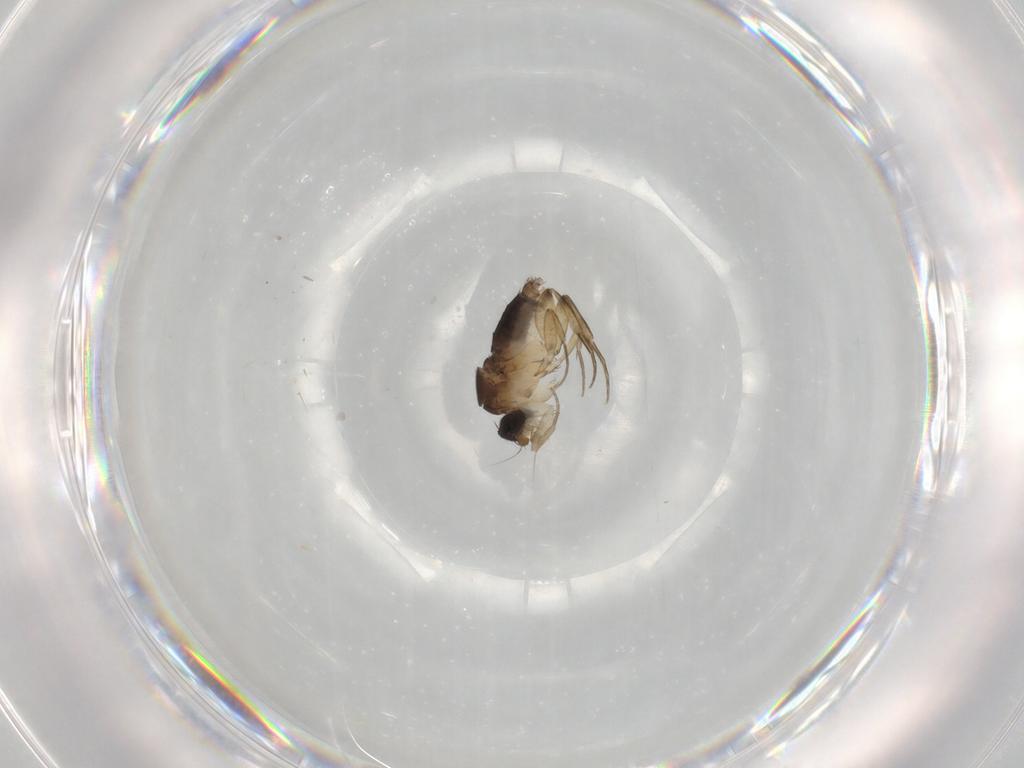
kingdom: Animalia
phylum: Arthropoda
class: Insecta
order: Diptera
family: Phoridae
